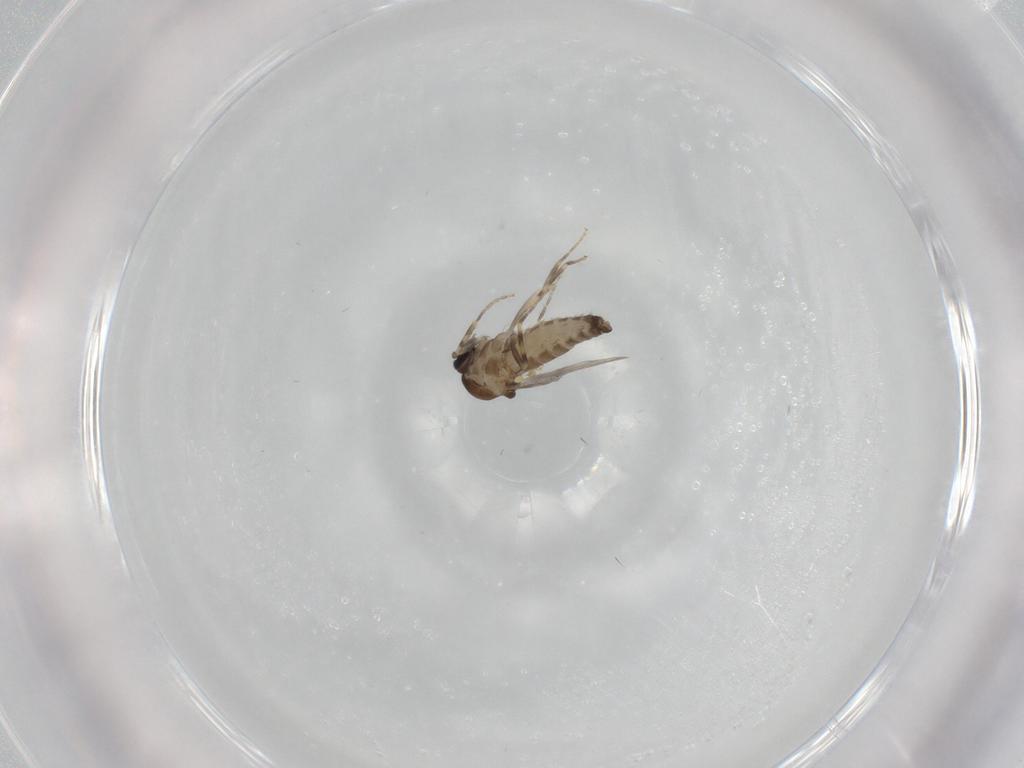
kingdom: Animalia
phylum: Arthropoda
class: Insecta
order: Diptera
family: Ceratopogonidae
